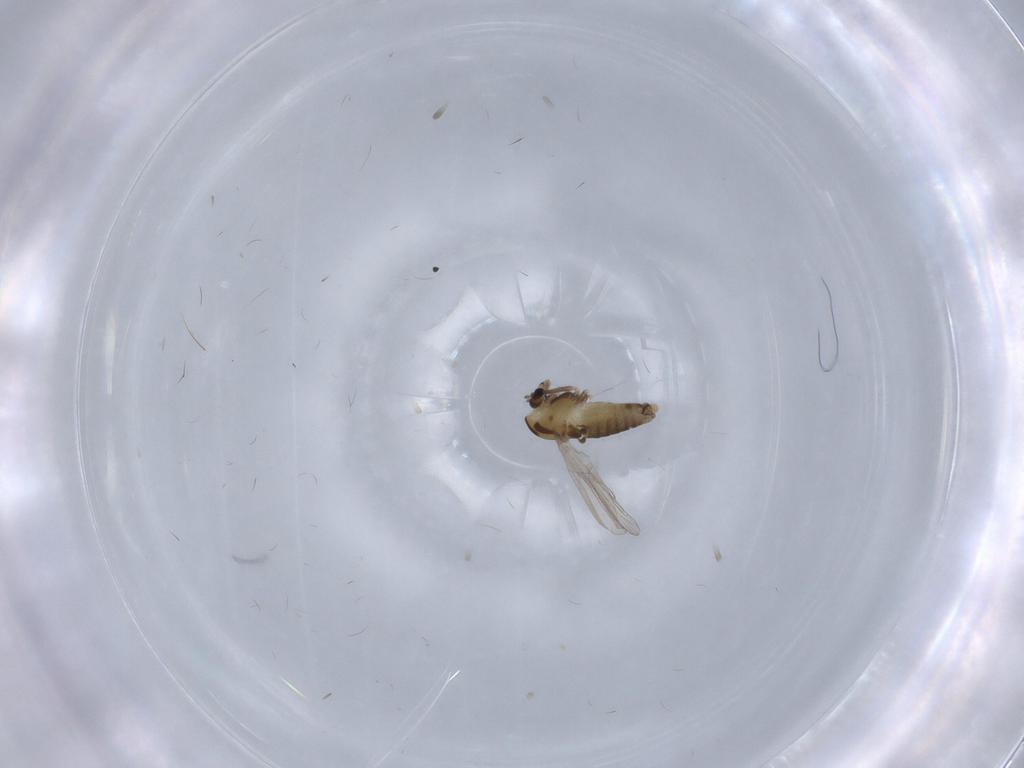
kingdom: Animalia
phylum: Arthropoda
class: Insecta
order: Diptera
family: Chironomidae
